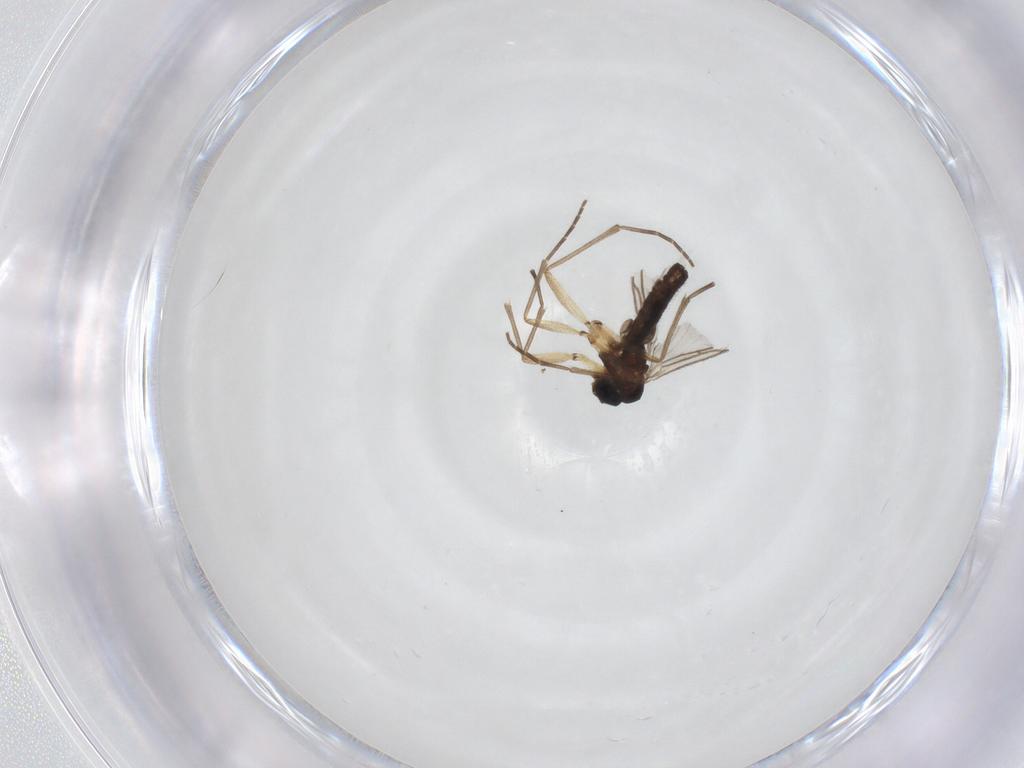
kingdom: Animalia
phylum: Arthropoda
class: Insecta
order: Diptera
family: Sciaridae
